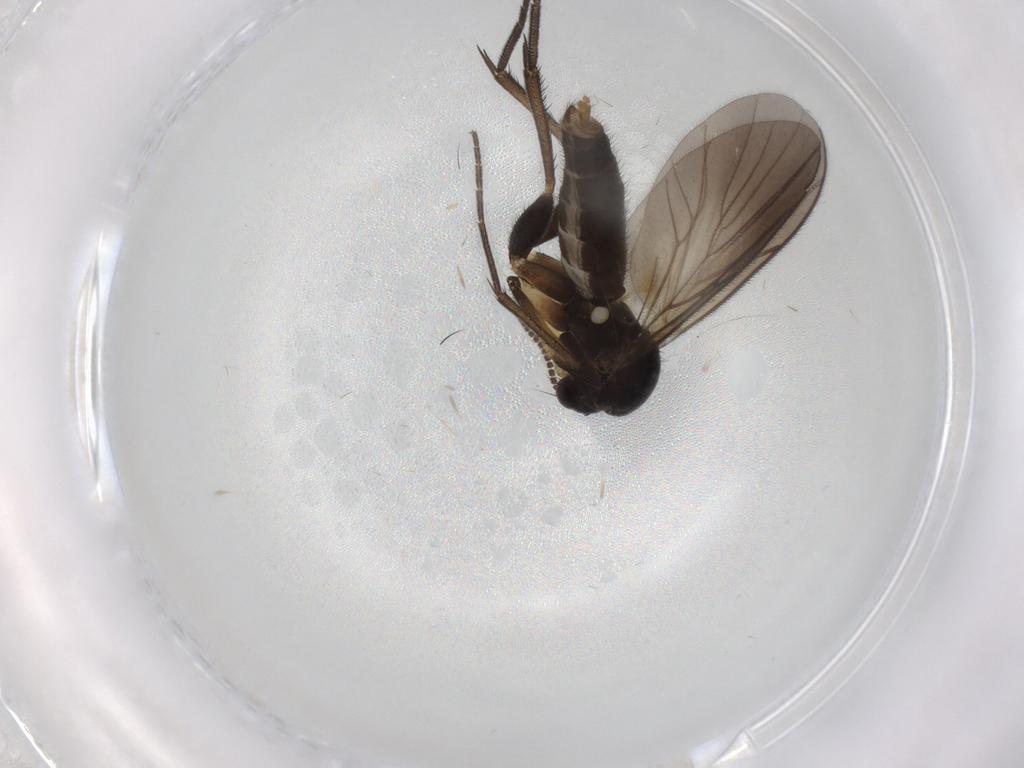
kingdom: Animalia
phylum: Arthropoda
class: Insecta
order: Diptera
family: Mycetophilidae
